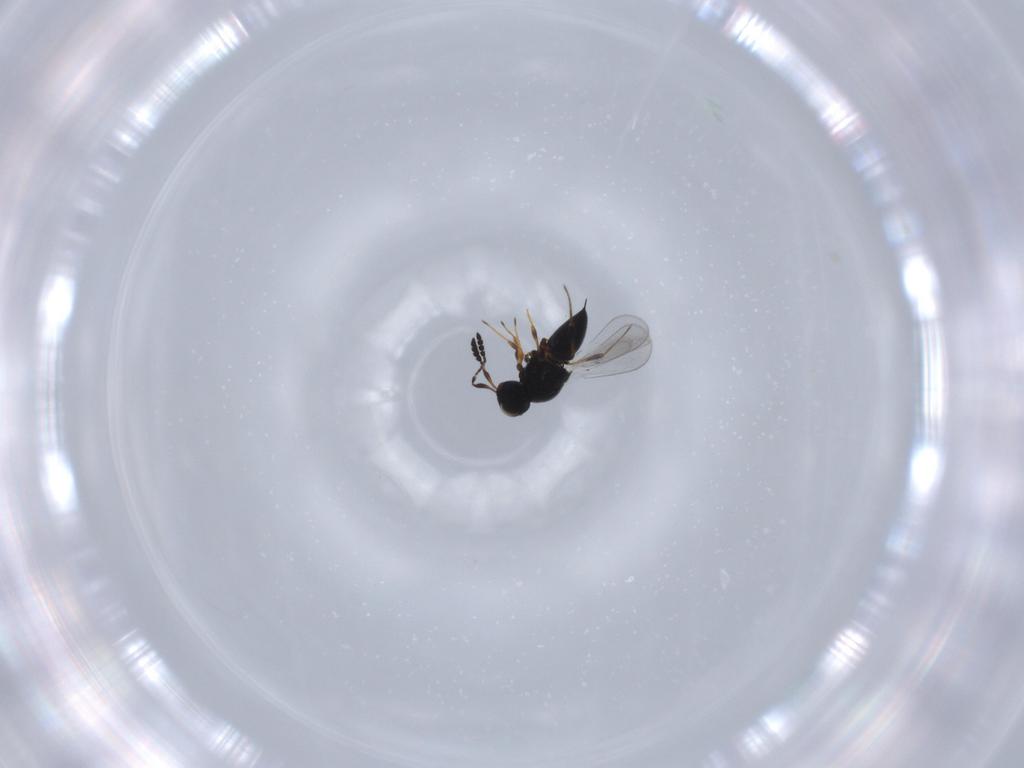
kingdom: Animalia
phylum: Arthropoda
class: Insecta
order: Hymenoptera
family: Platygastridae
